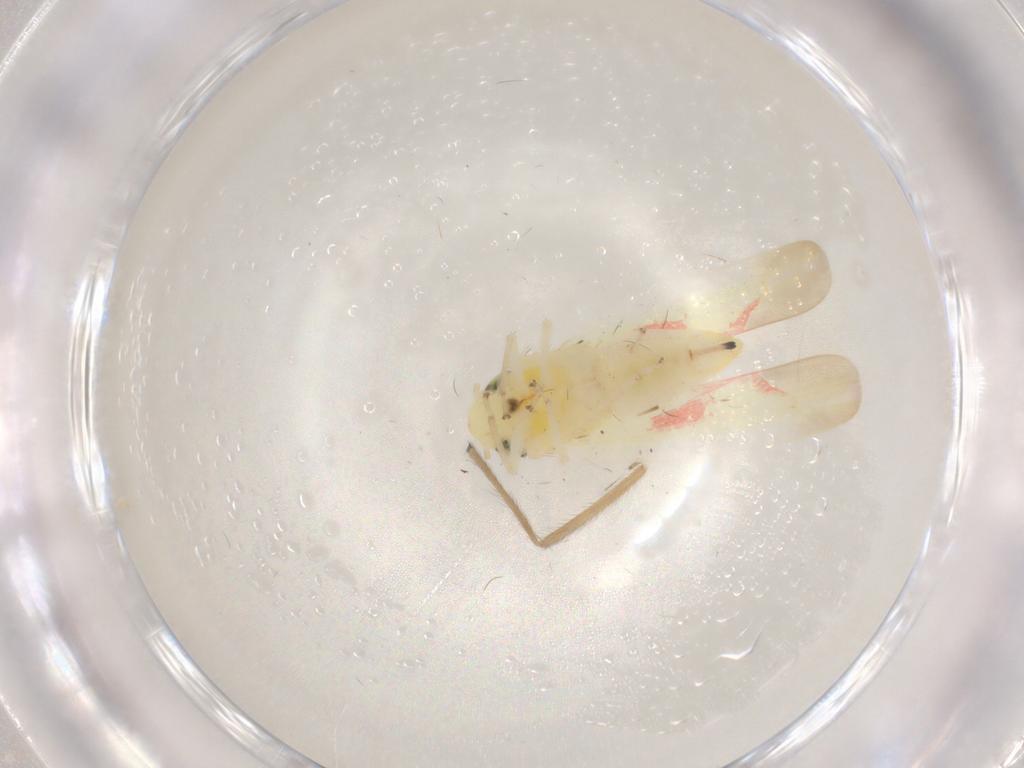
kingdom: Animalia
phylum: Arthropoda
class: Insecta
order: Hemiptera
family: Cicadellidae
